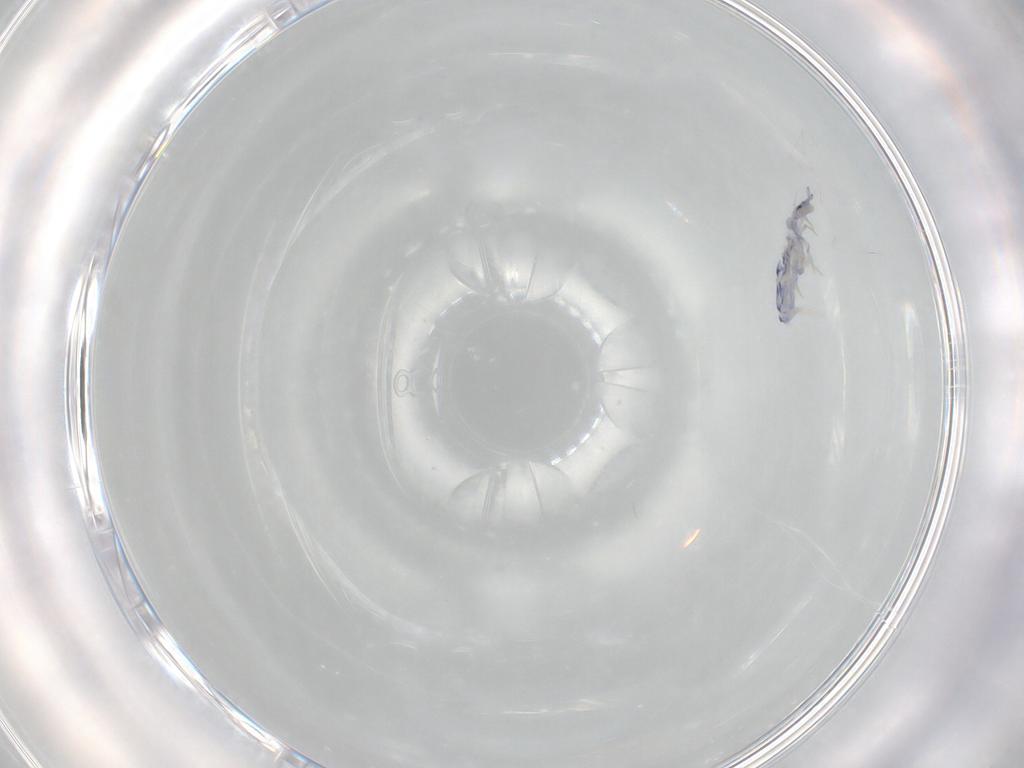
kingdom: Animalia
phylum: Arthropoda
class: Collembola
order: Entomobryomorpha
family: Entomobryidae
